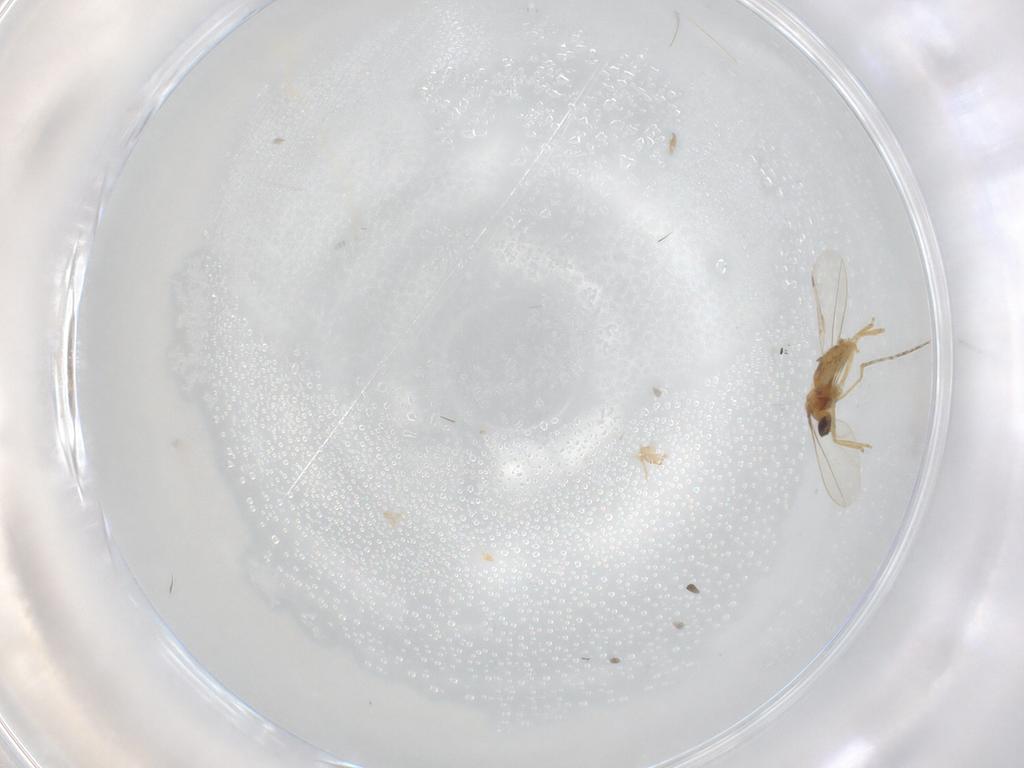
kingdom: Animalia
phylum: Arthropoda
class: Insecta
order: Diptera
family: Cecidomyiidae
